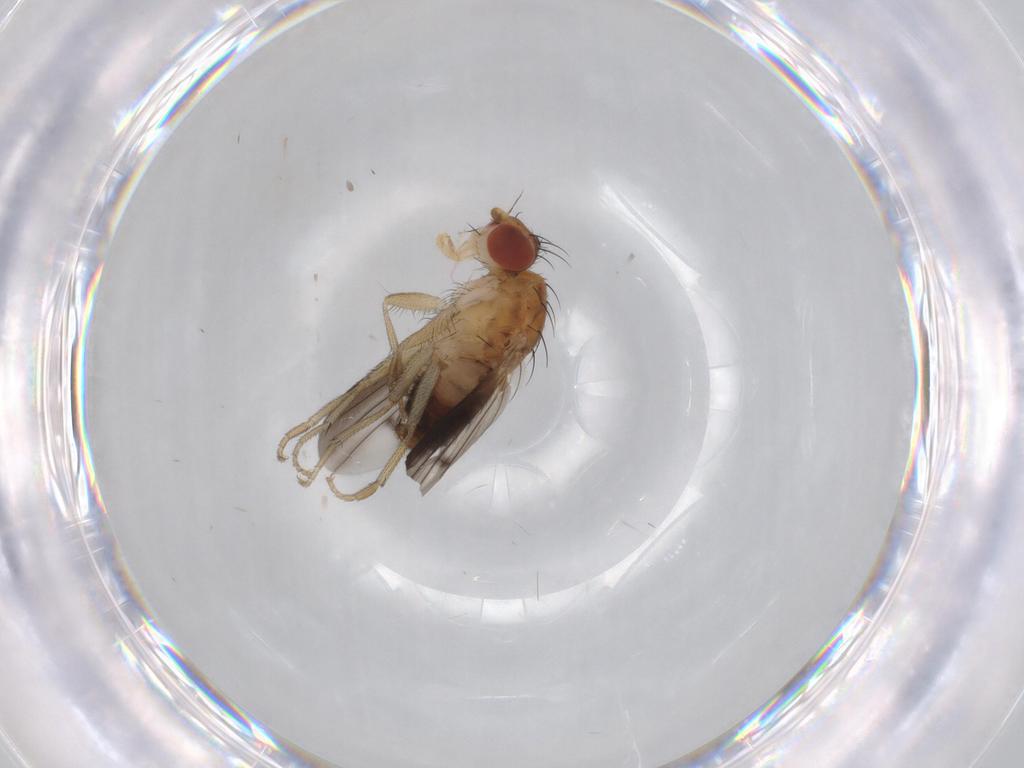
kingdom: Animalia
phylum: Arthropoda
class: Insecta
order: Diptera
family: Heleomyzidae
